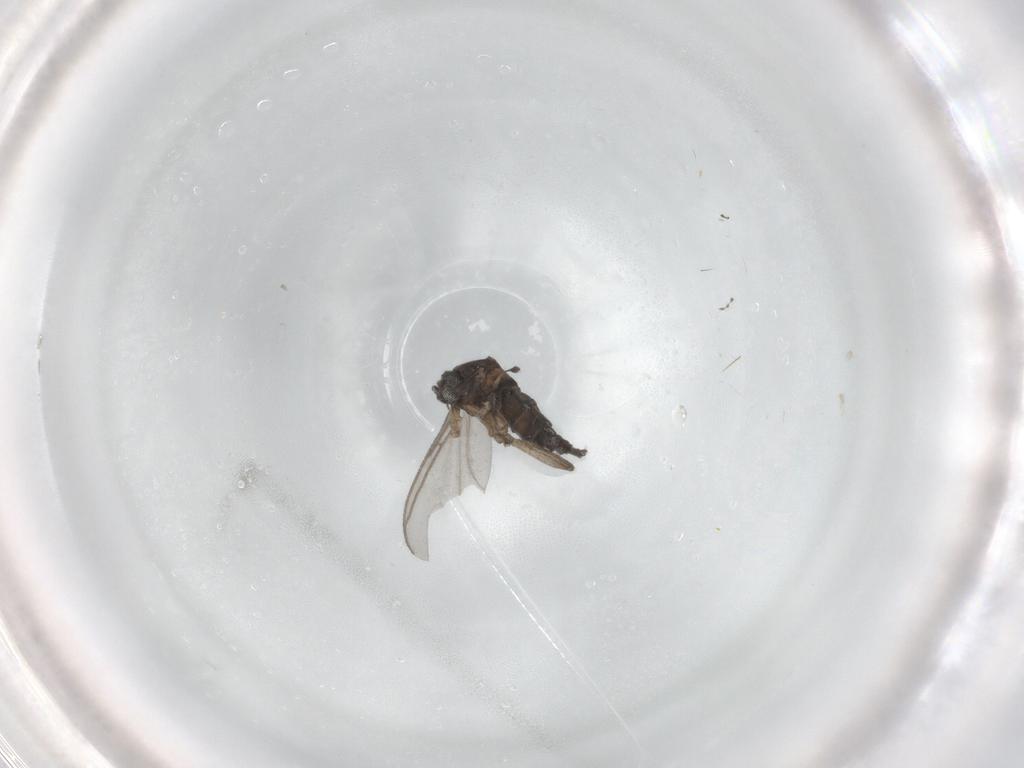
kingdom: Animalia
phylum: Arthropoda
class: Insecta
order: Diptera
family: Sciaridae
